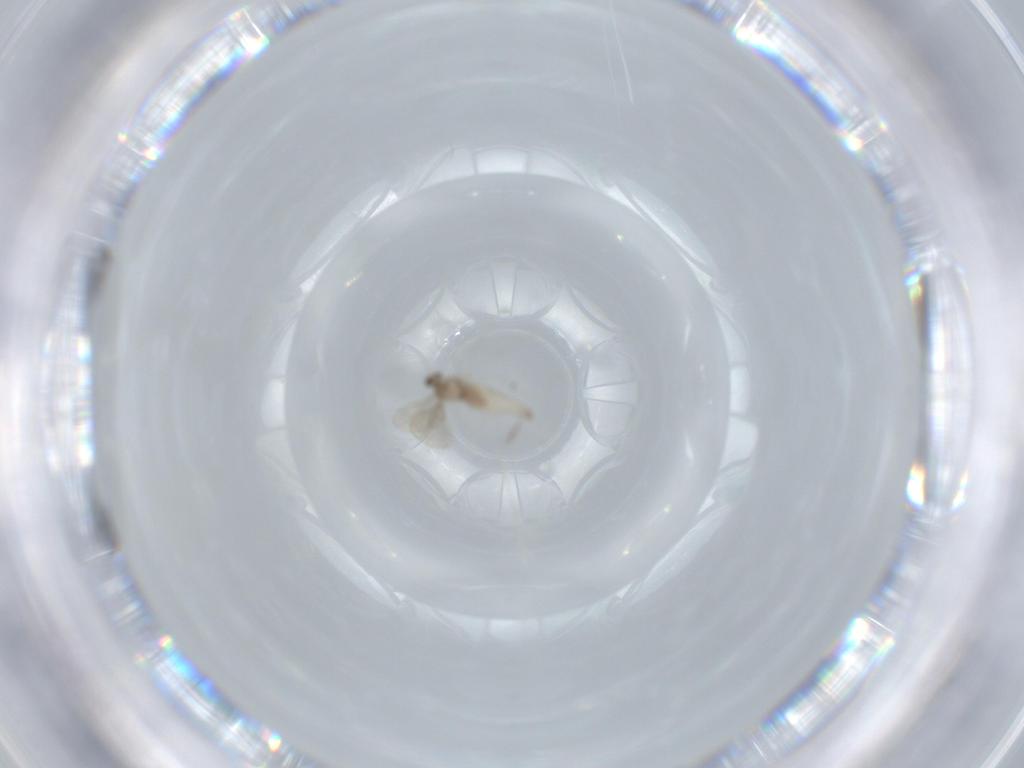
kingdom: Animalia
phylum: Arthropoda
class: Insecta
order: Diptera
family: Cecidomyiidae
